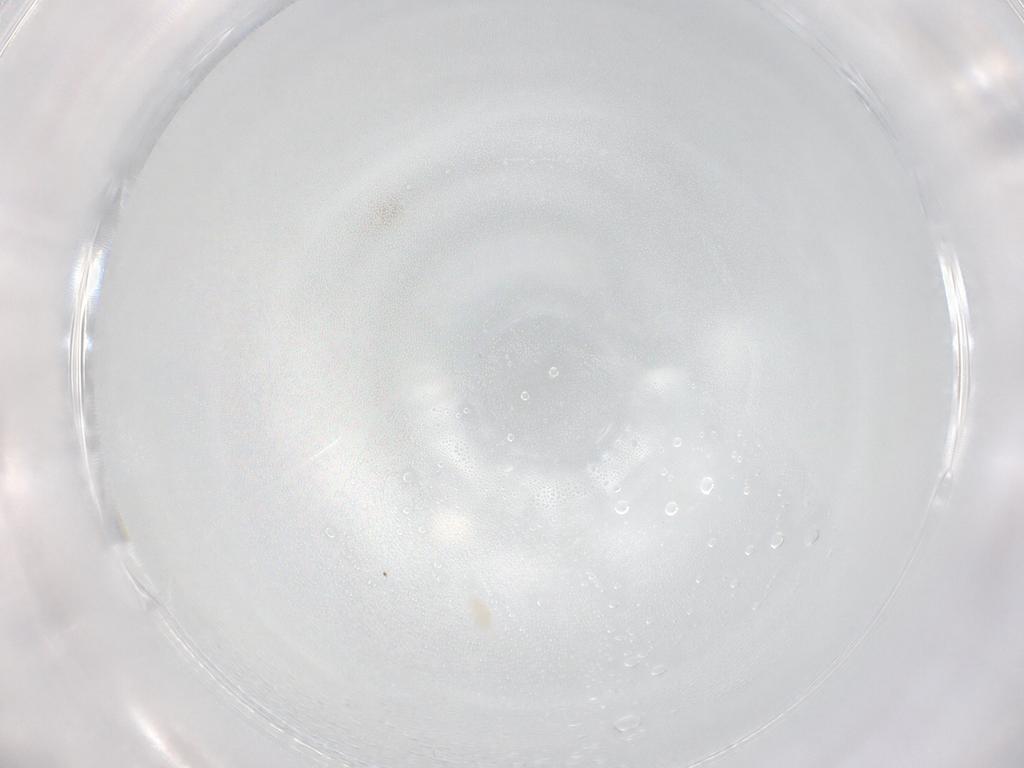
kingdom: Animalia
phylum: Arthropoda
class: Arachnida
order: Trombidiformes
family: Eupodidae
